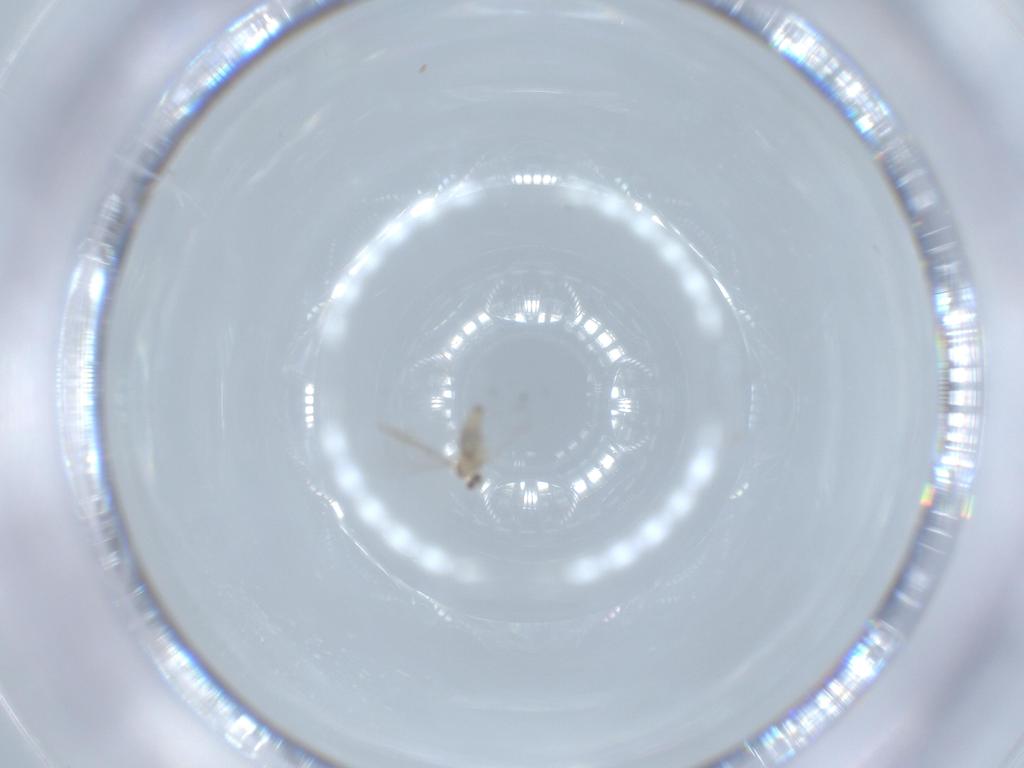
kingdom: Animalia
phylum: Arthropoda
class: Insecta
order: Diptera
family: Cecidomyiidae
